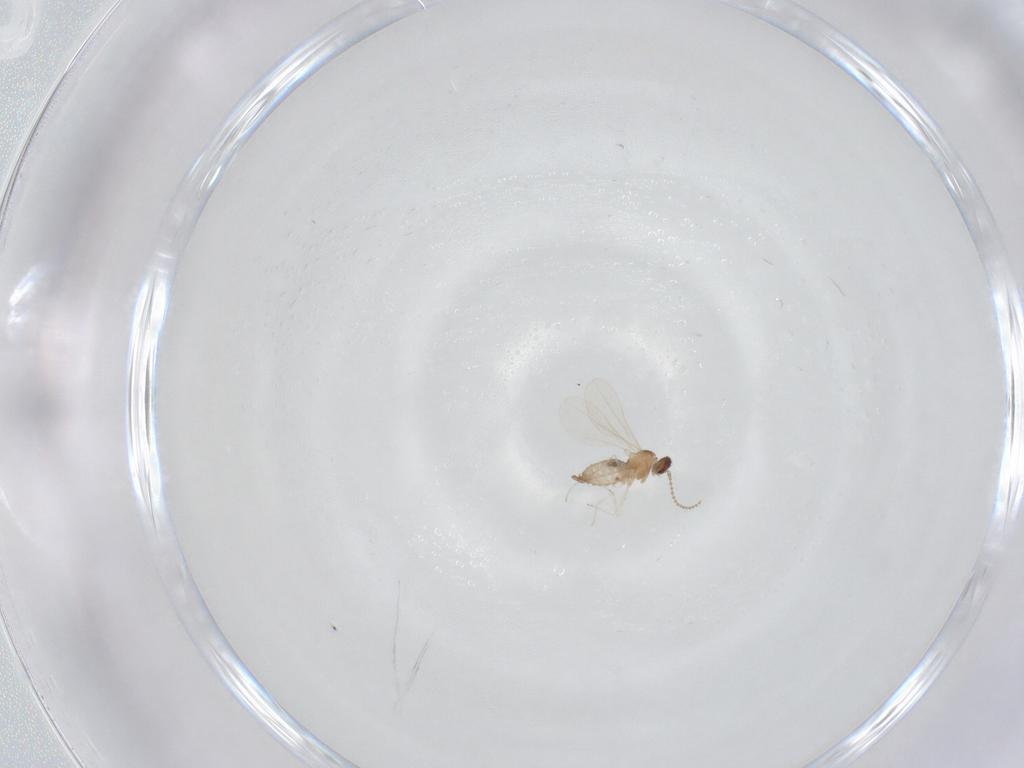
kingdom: Animalia
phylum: Arthropoda
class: Insecta
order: Diptera
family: Cecidomyiidae
